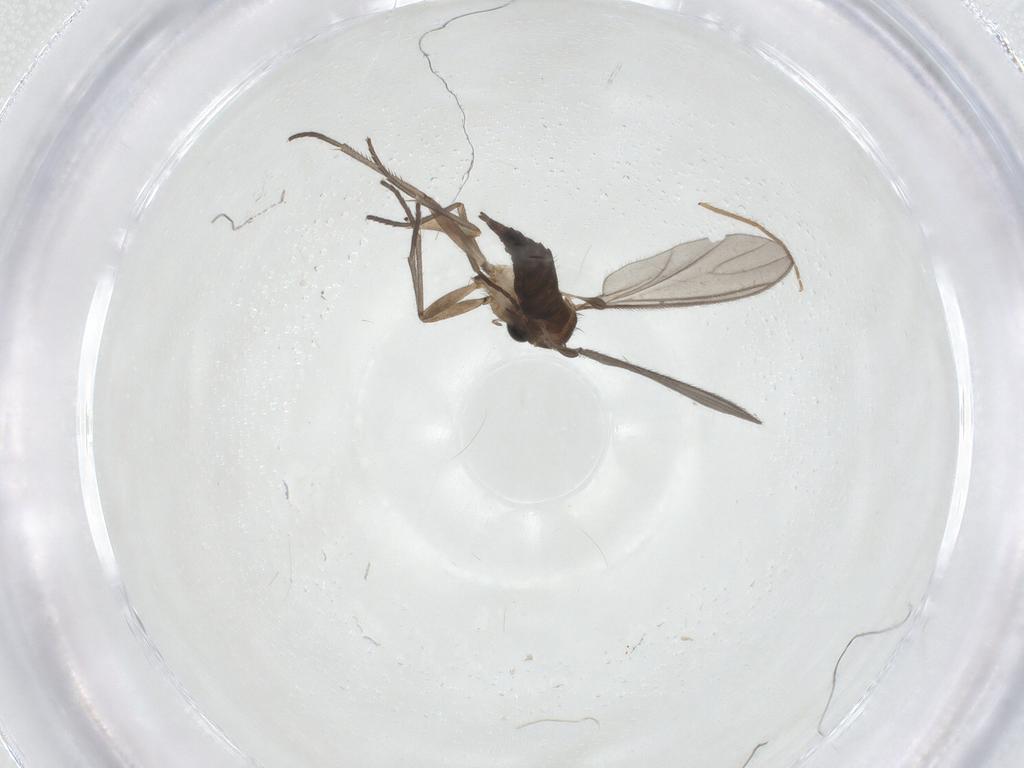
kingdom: Animalia
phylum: Arthropoda
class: Insecta
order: Diptera
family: Sciaridae
